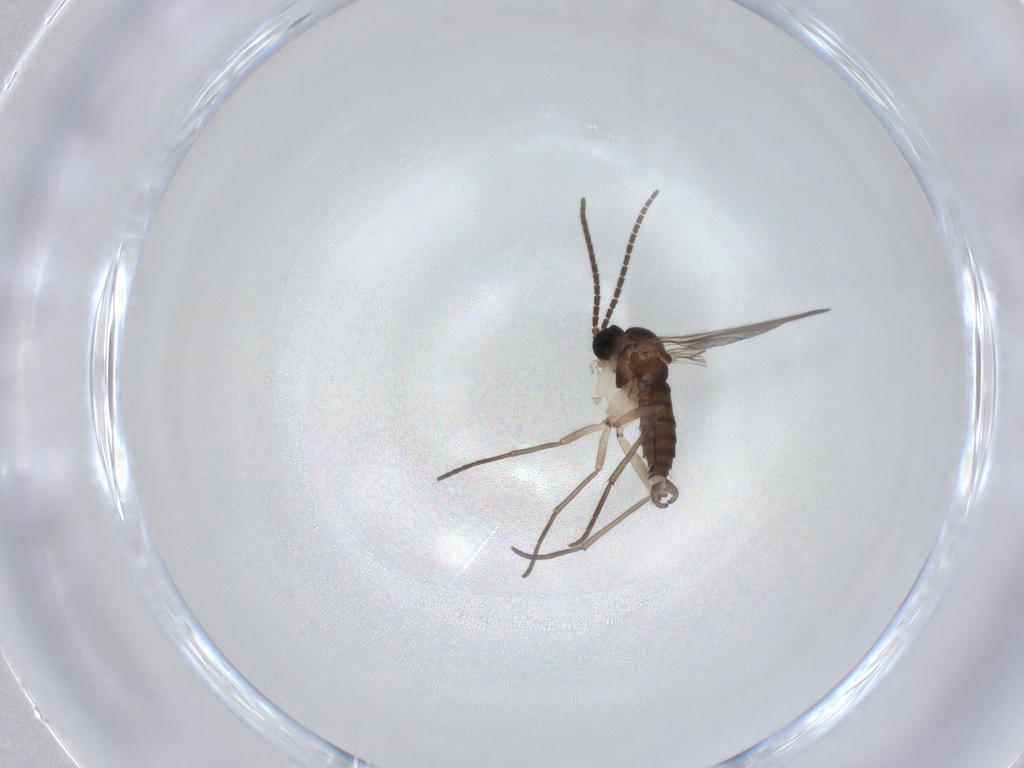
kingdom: Animalia
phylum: Arthropoda
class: Insecta
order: Diptera
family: Sciaridae
